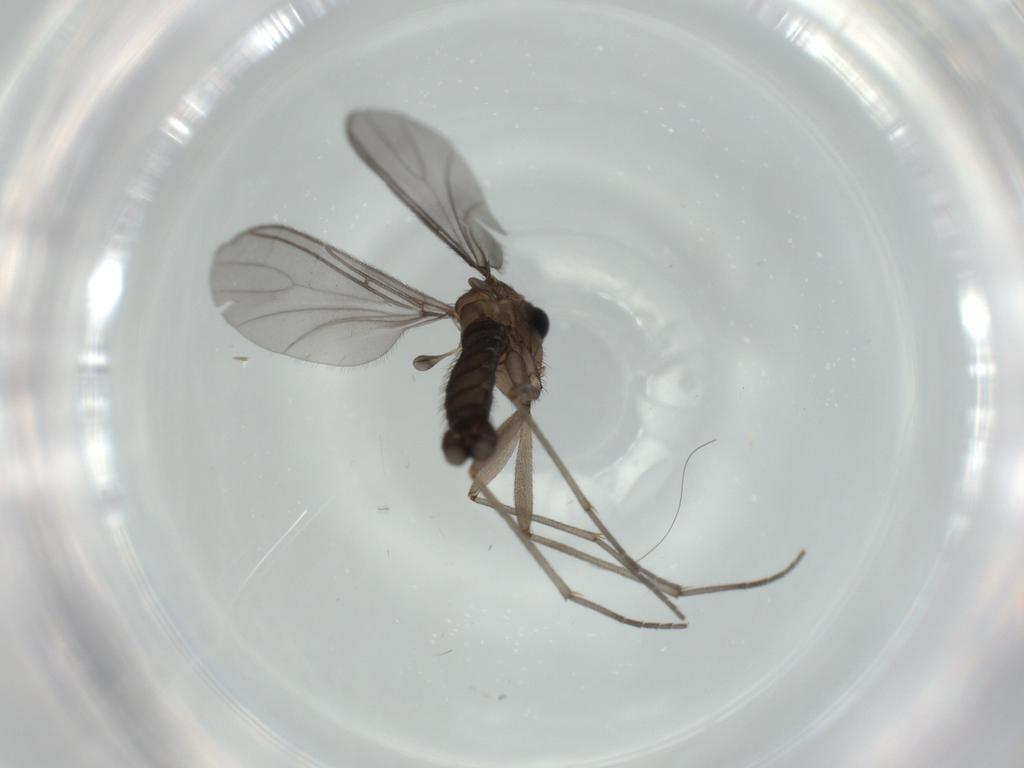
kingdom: Animalia
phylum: Arthropoda
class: Insecta
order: Diptera
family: Sciaridae
